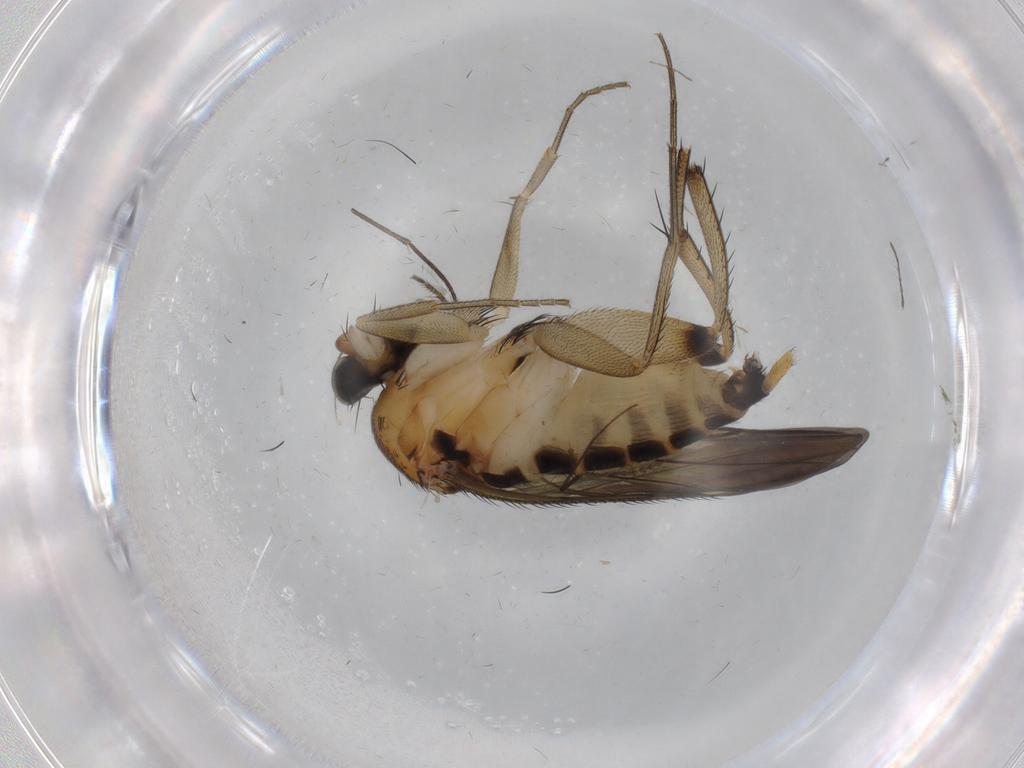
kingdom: Animalia
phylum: Arthropoda
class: Insecta
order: Diptera
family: Phoridae
